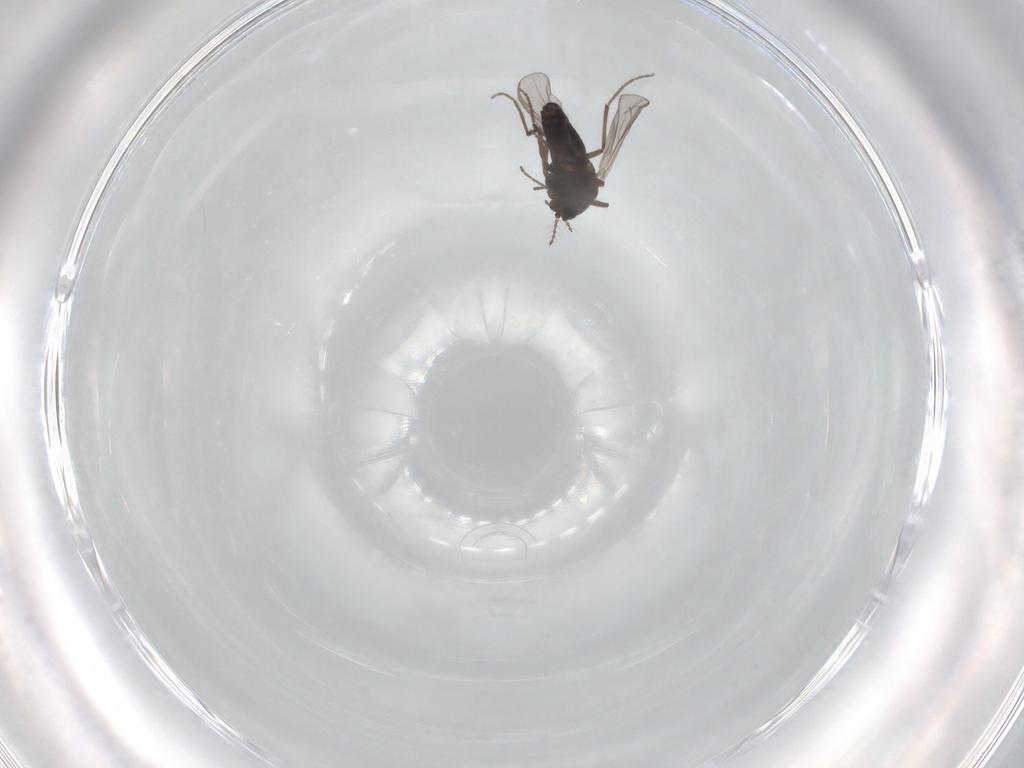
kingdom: Animalia
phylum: Arthropoda
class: Insecta
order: Diptera
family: Chironomidae
